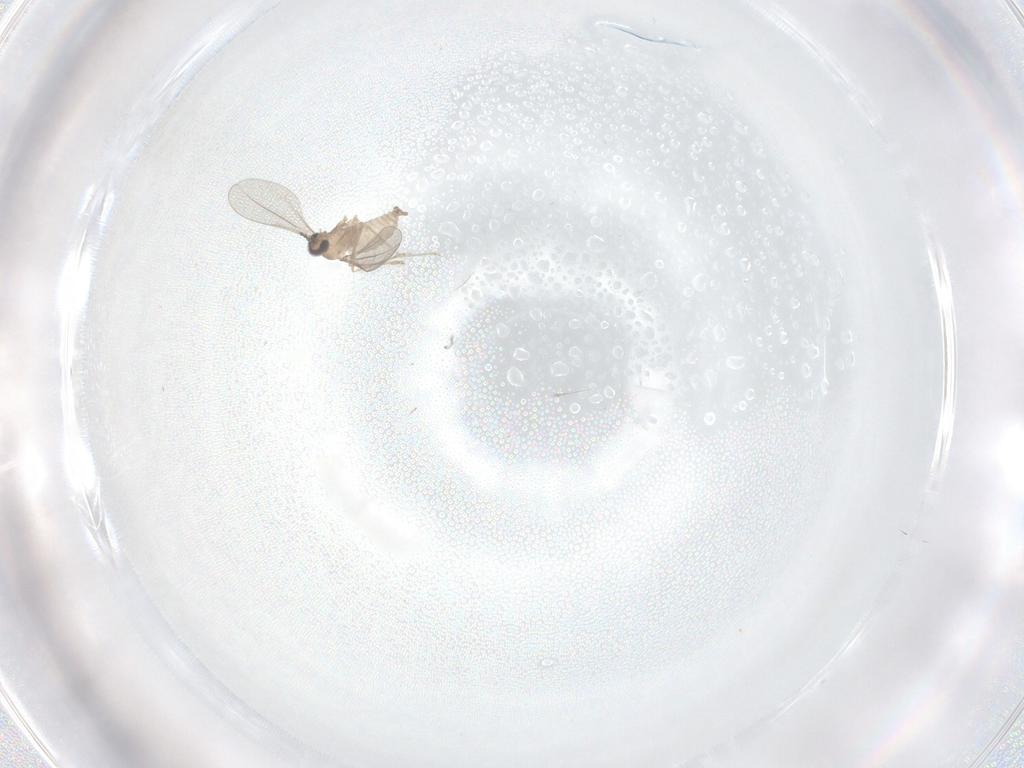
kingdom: Animalia
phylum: Arthropoda
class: Insecta
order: Diptera
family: Cecidomyiidae
